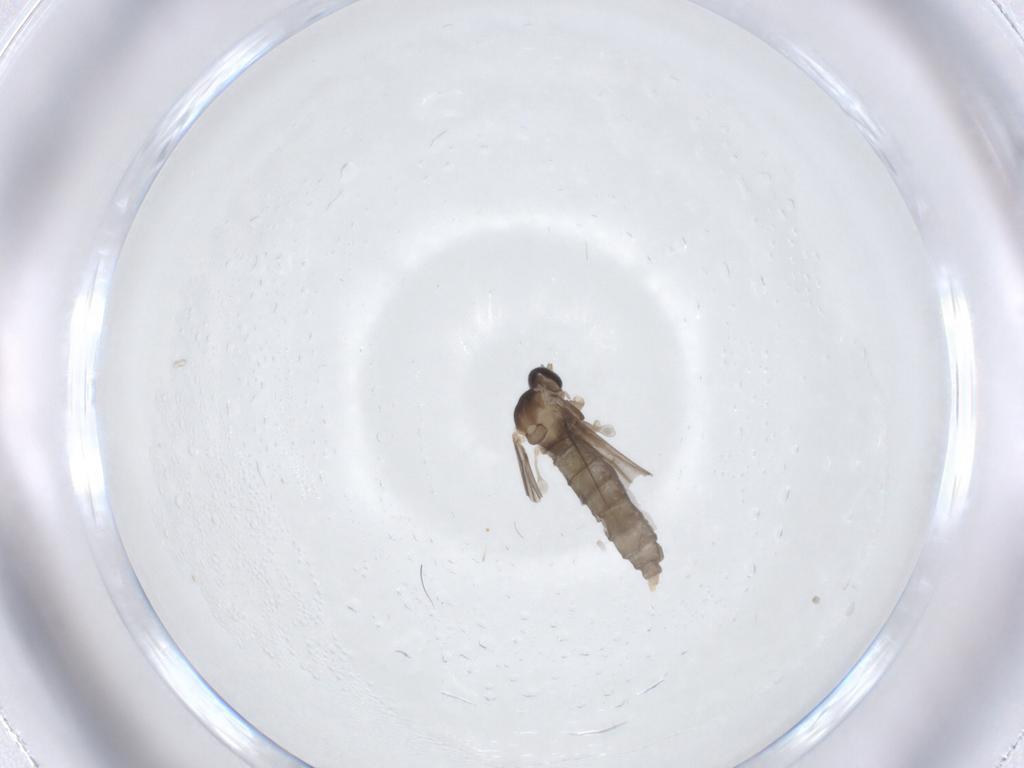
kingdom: Animalia
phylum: Arthropoda
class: Insecta
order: Diptera
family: Cecidomyiidae
